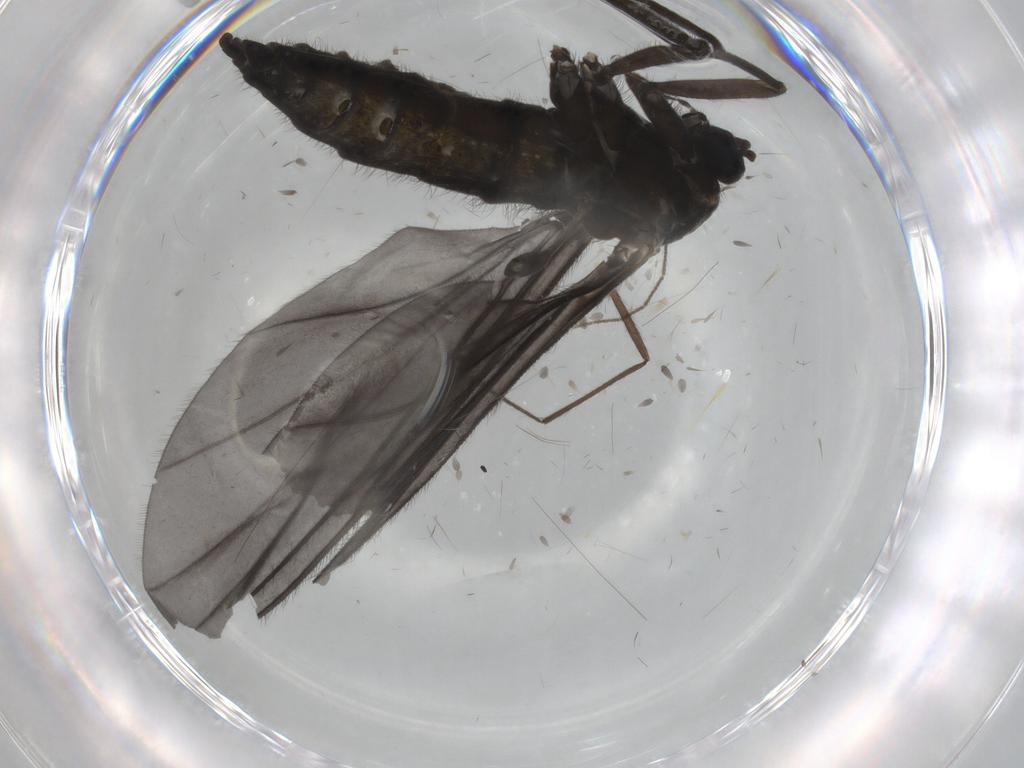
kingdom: Animalia
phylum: Arthropoda
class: Insecta
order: Diptera
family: Sciaridae
